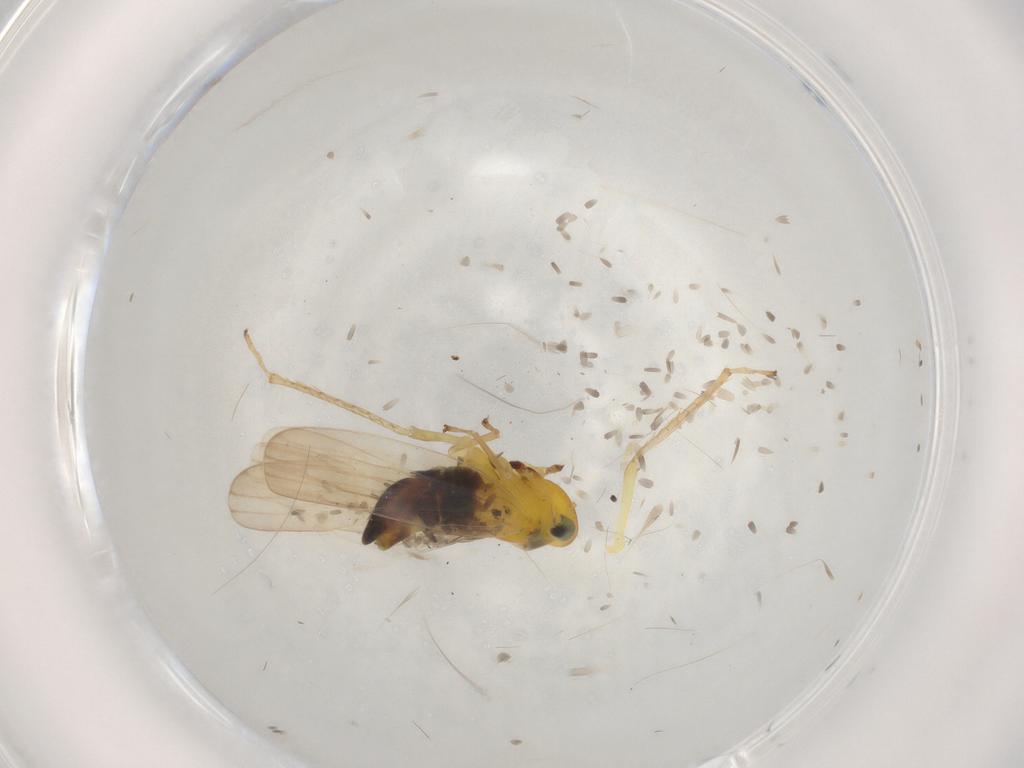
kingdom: Animalia
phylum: Arthropoda
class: Insecta
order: Hemiptera
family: Cicadellidae
